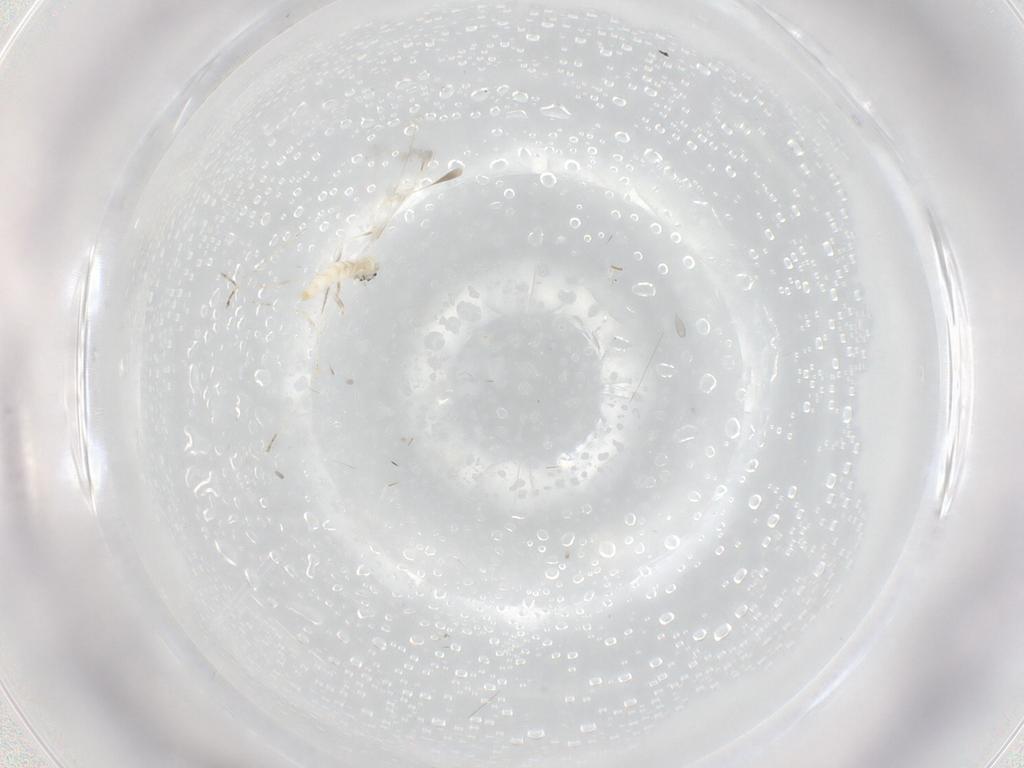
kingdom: Animalia
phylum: Arthropoda
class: Insecta
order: Diptera
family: Cecidomyiidae
